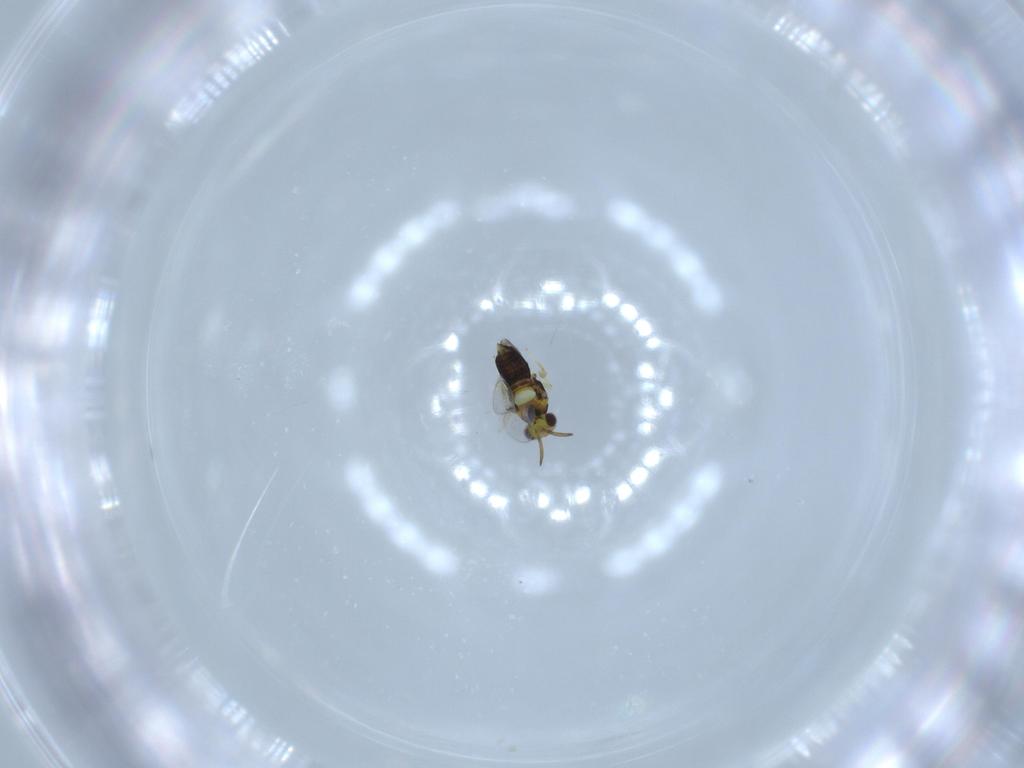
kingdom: Animalia
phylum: Arthropoda
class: Insecta
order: Hymenoptera
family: Aphelinidae
